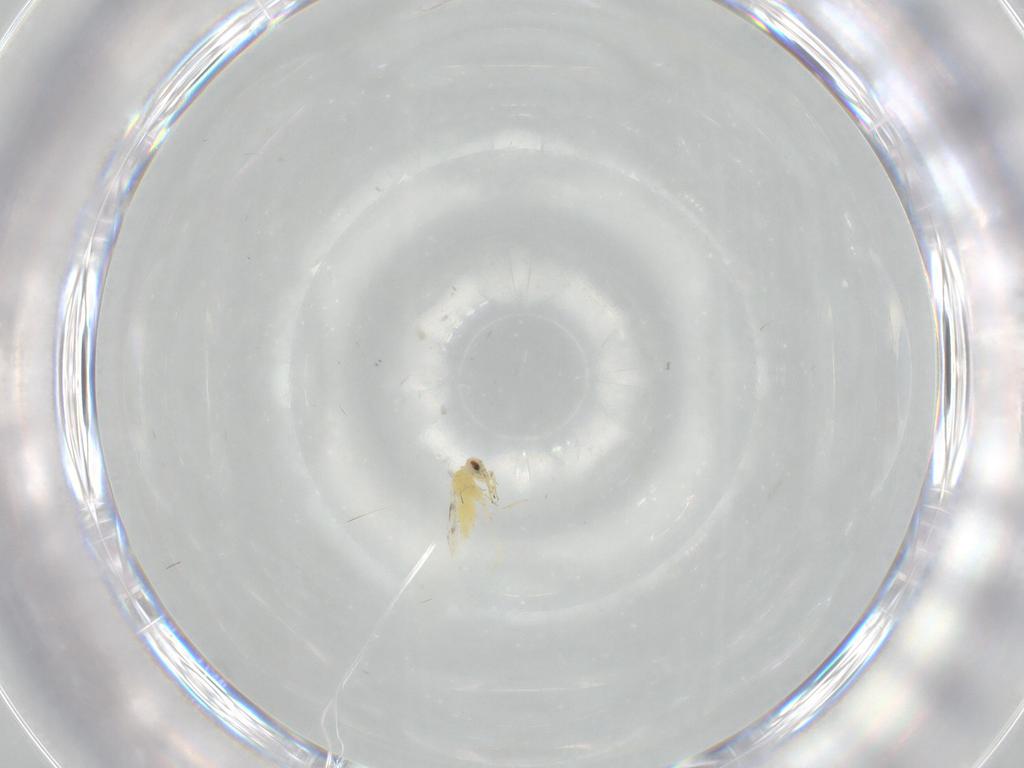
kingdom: Animalia
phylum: Arthropoda
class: Insecta
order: Hemiptera
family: Aleyrodidae
